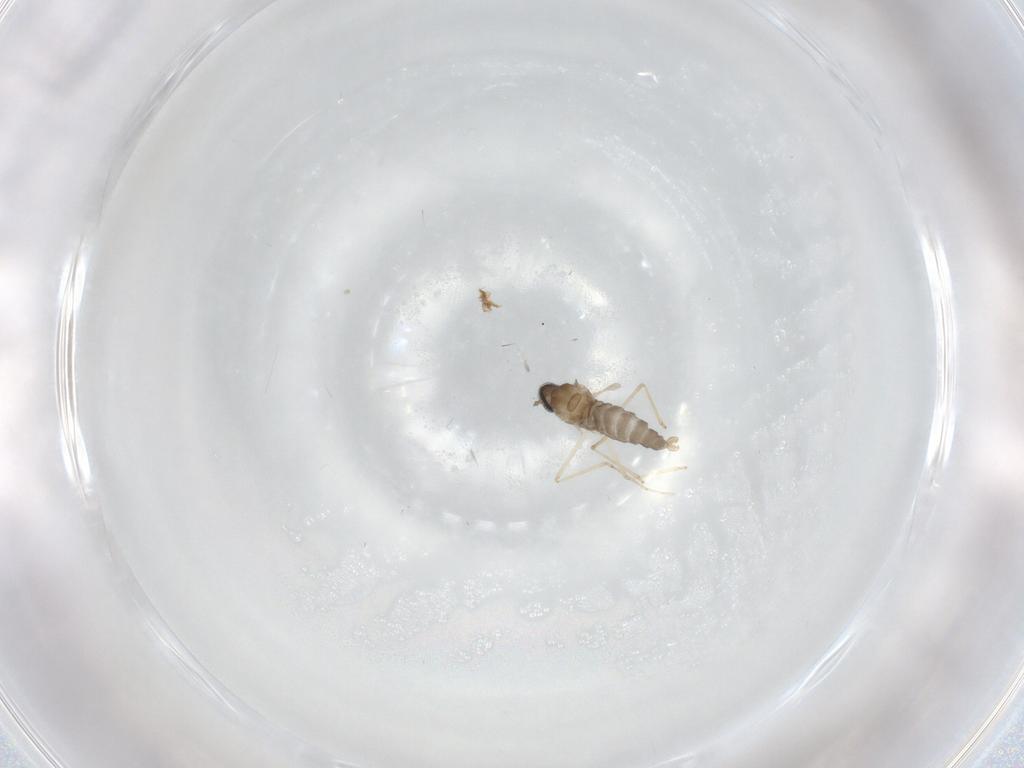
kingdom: Animalia
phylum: Arthropoda
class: Insecta
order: Diptera
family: Cecidomyiidae
